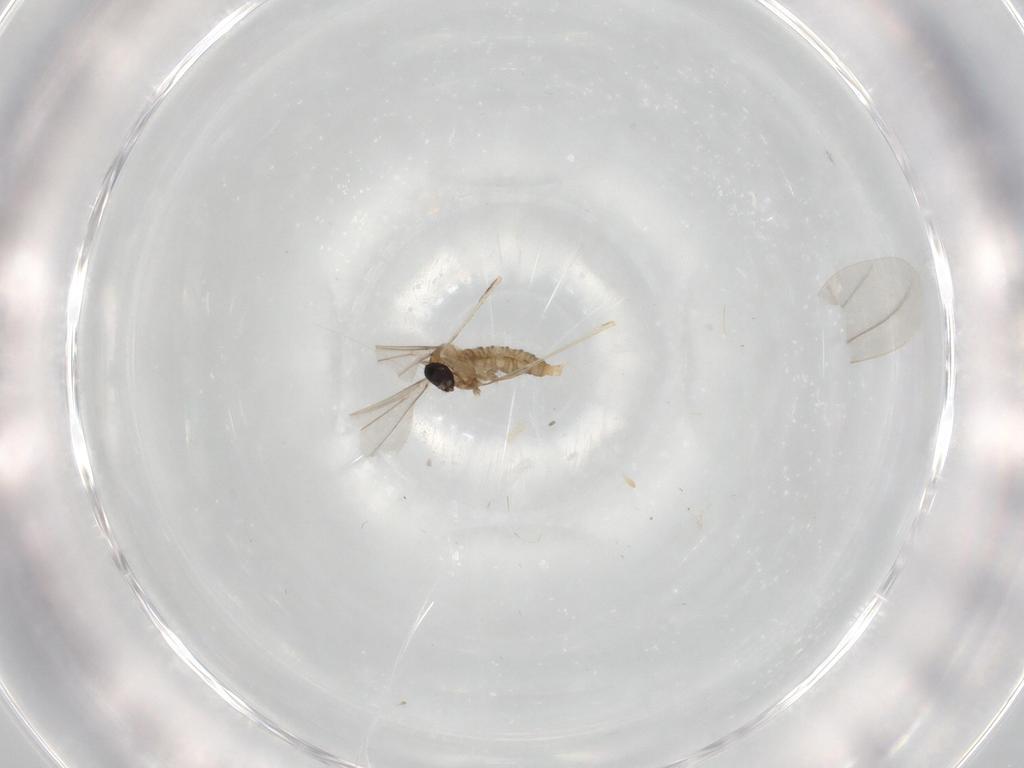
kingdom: Animalia
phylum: Arthropoda
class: Insecta
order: Diptera
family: Cecidomyiidae
